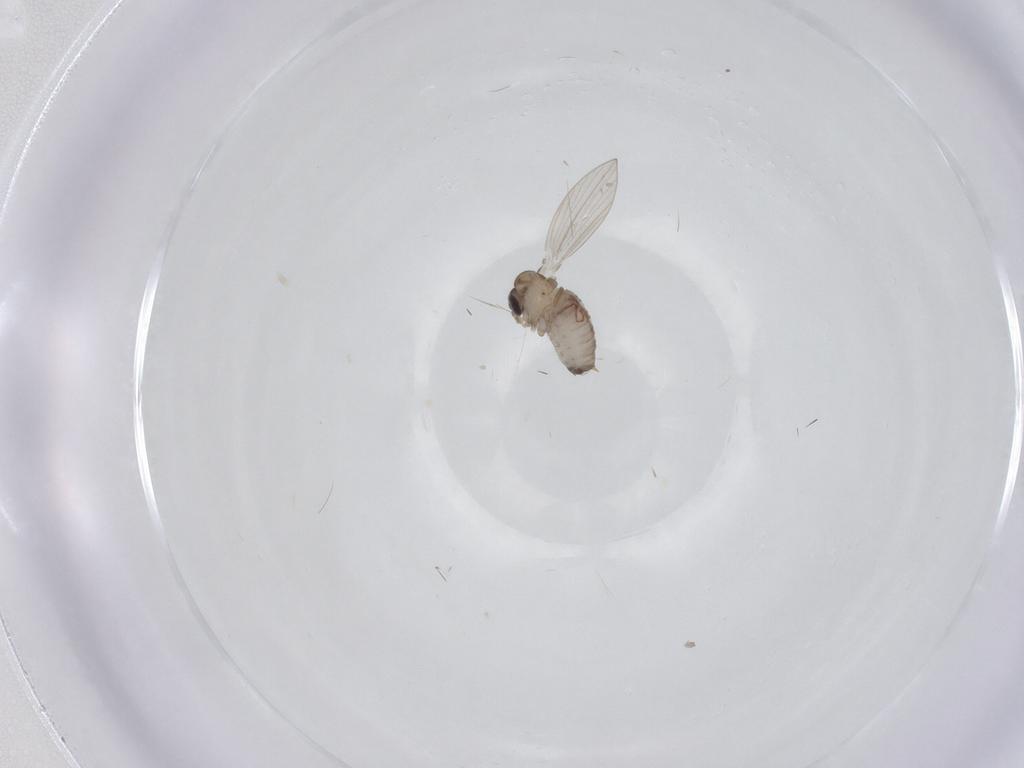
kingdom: Animalia
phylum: Arthropoda
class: Insecta
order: Diptera
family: Psychodidae
